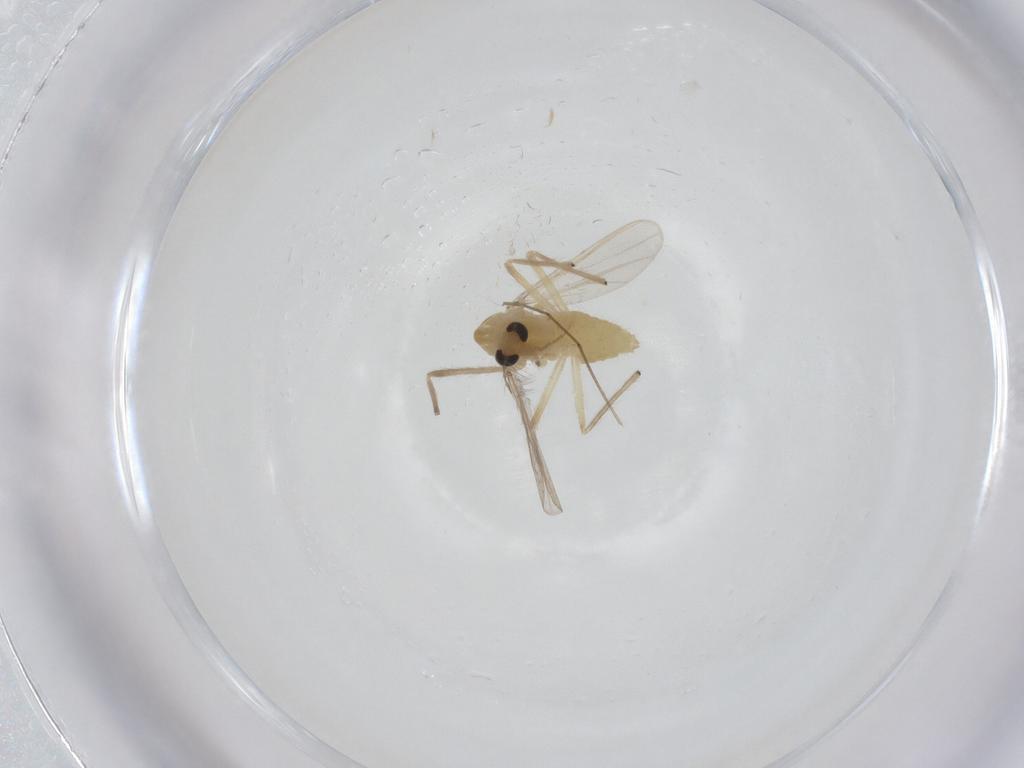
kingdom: Animalia
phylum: Arthropoda
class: Insecta
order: Diptera
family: Chironomidae
